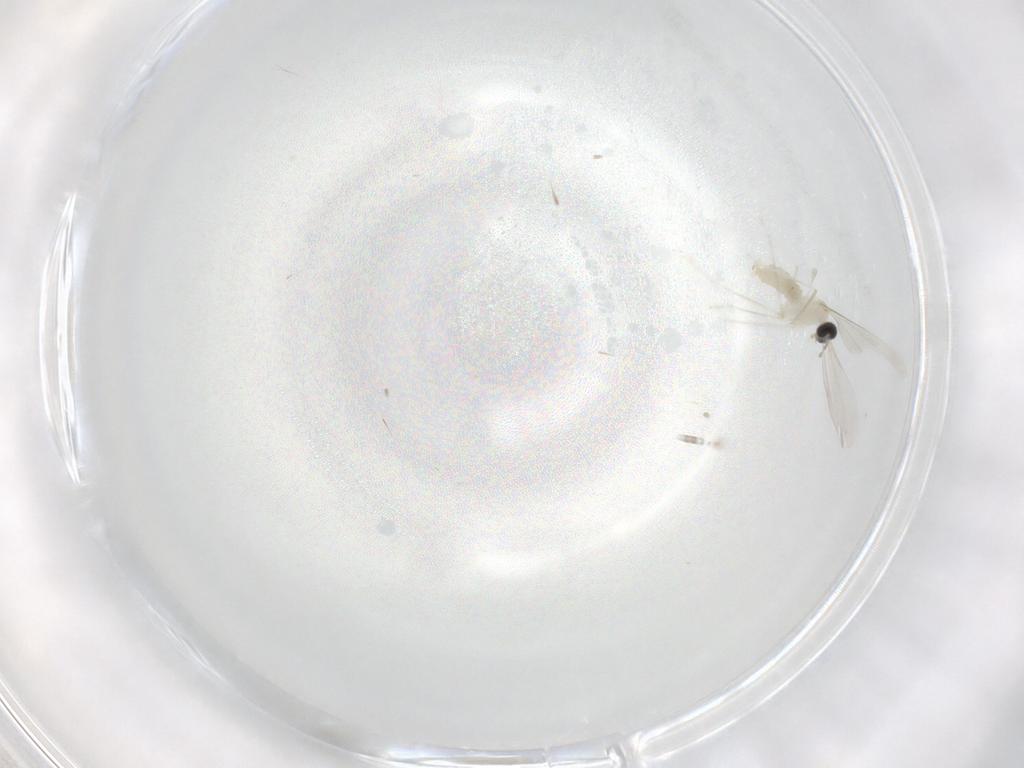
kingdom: Animalia
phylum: Arthropoda
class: Insecta
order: Diptera
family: Cecidomyiidae
